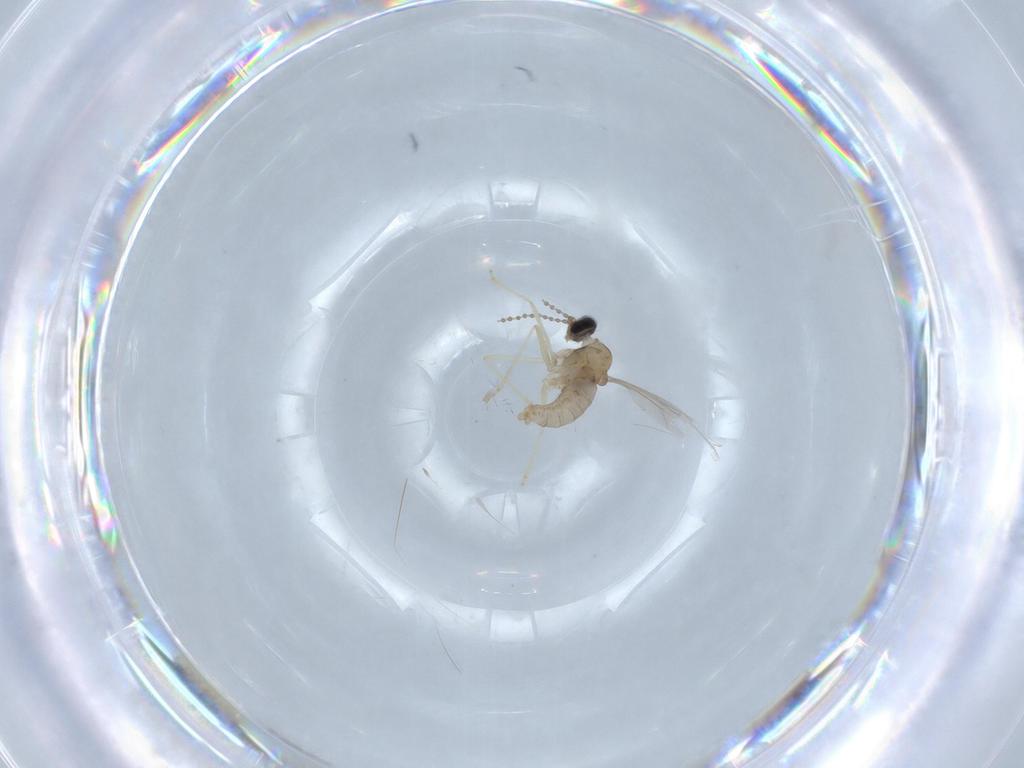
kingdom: Animalia
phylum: Arthropoda
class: Insecta
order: Diptera
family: Cecidomyiidae
